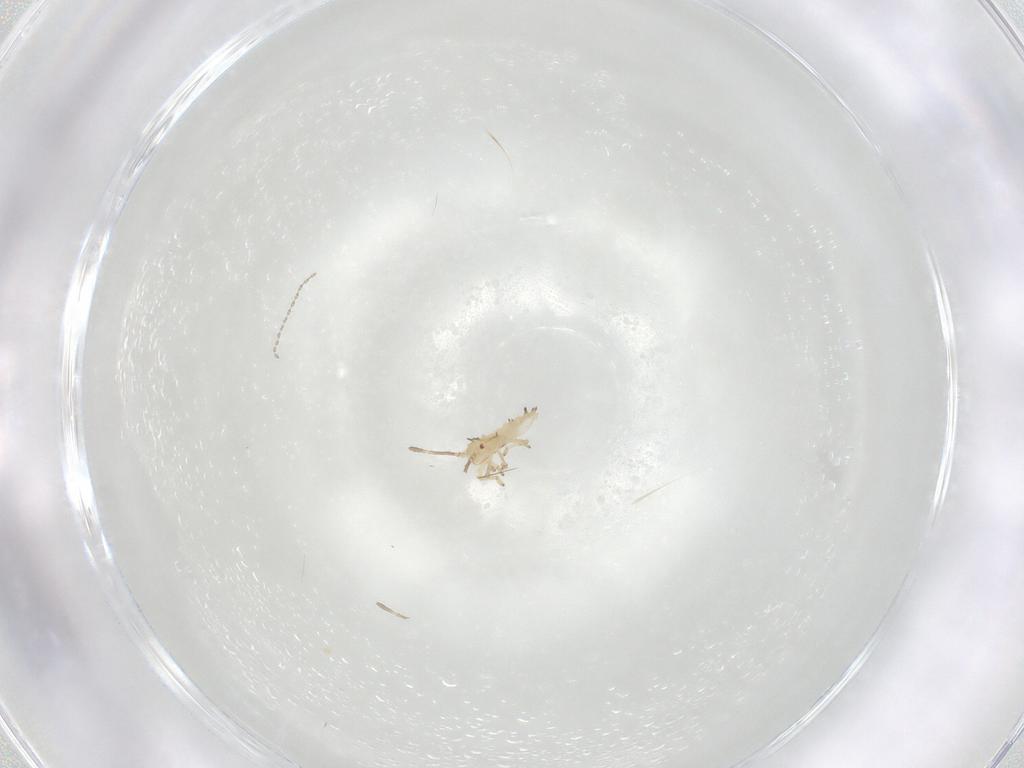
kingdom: Animalia
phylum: Arthropoda
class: Insecta
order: Hemiptera
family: Tingidae
